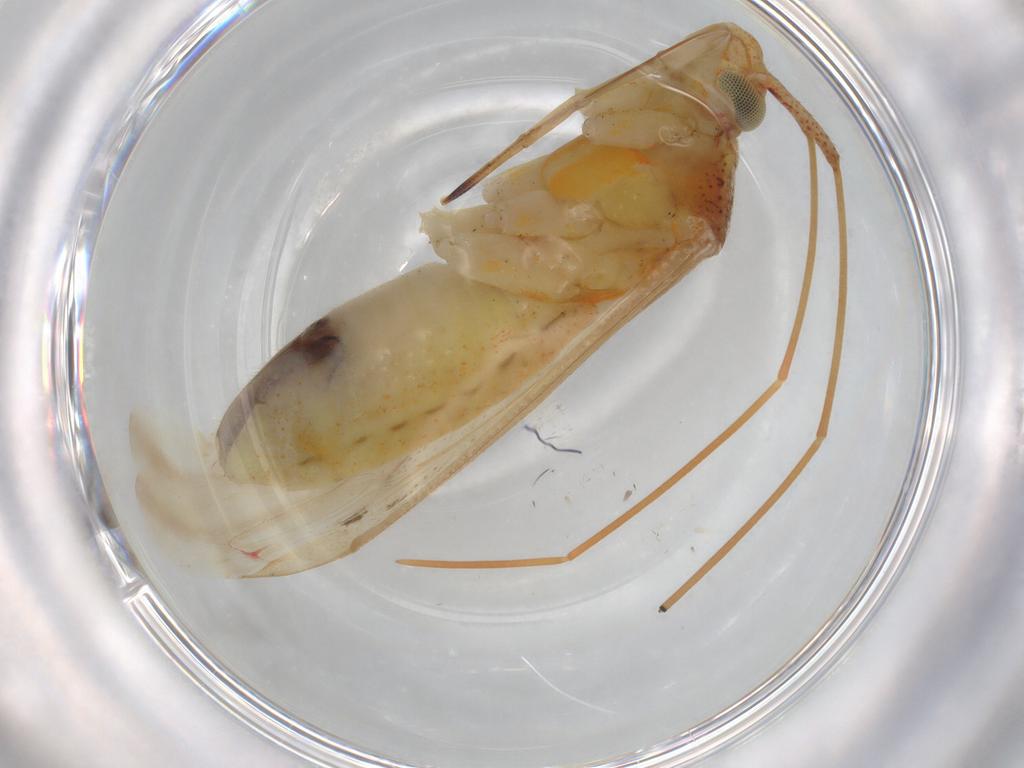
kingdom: Animalia
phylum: Arthropoda
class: Insecta
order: Hemiptera
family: Miridae
